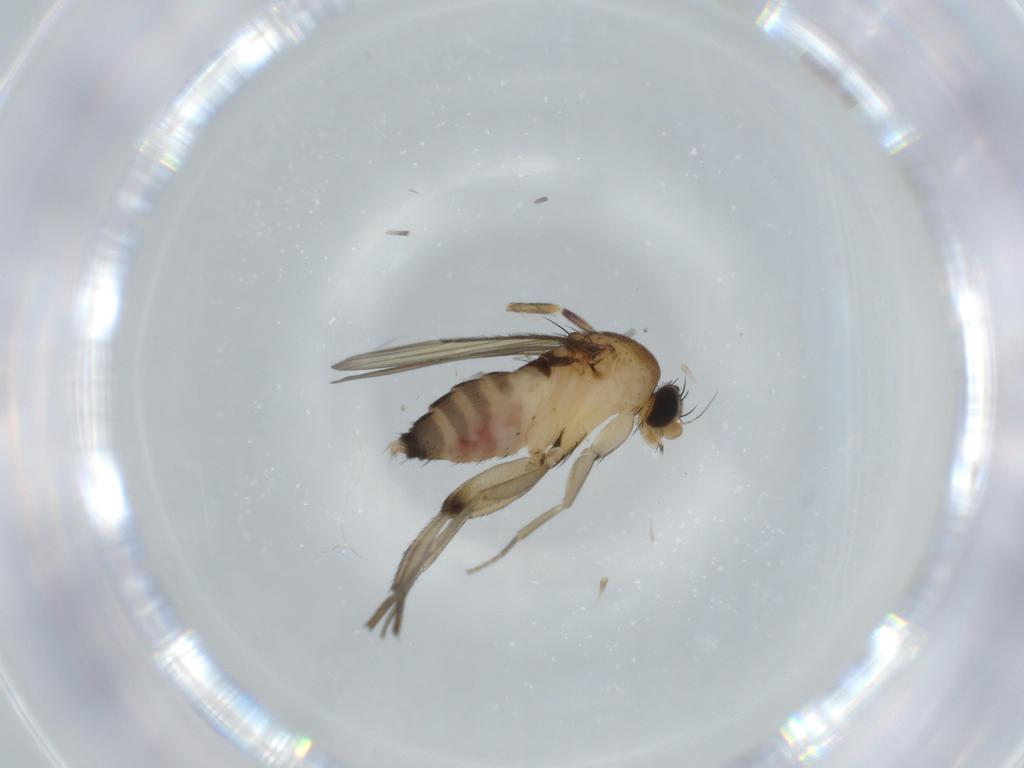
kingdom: Animalia
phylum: Arthropoda
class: Insecta
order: Diptera
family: Phoridae
